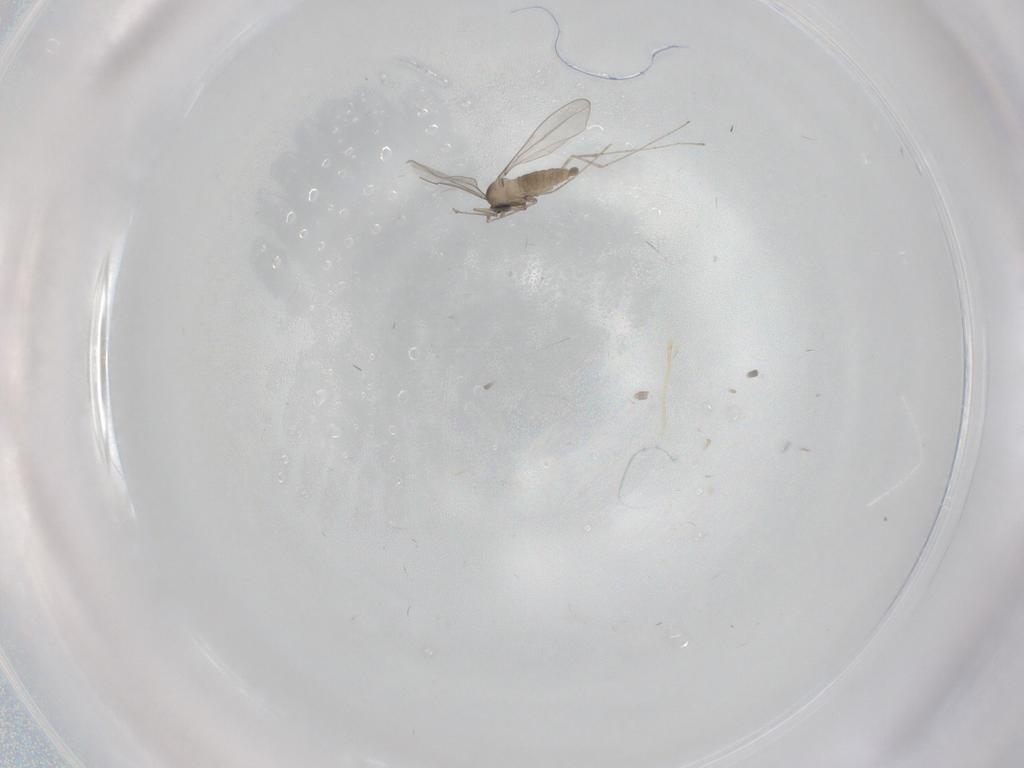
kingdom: Animalia
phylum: Arthropoda
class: Insecta
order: Diptera
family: Cecidomyiidae
